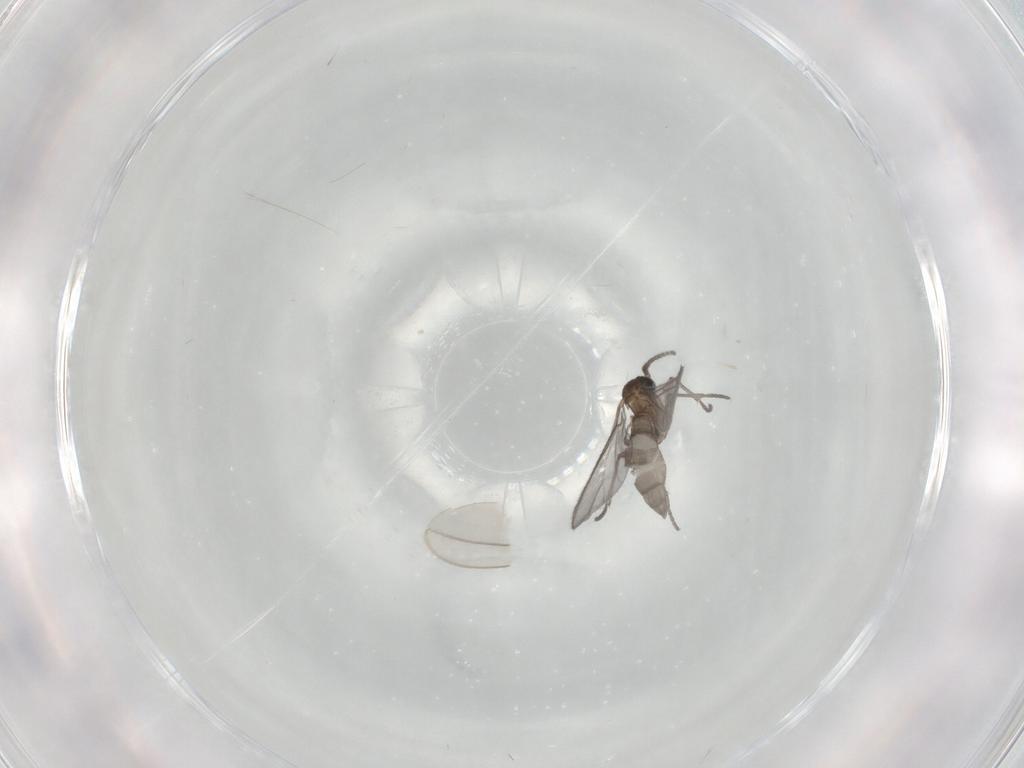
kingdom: Animalia
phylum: Arthropoda
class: Insecta
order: Diptera
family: Sciaridae
